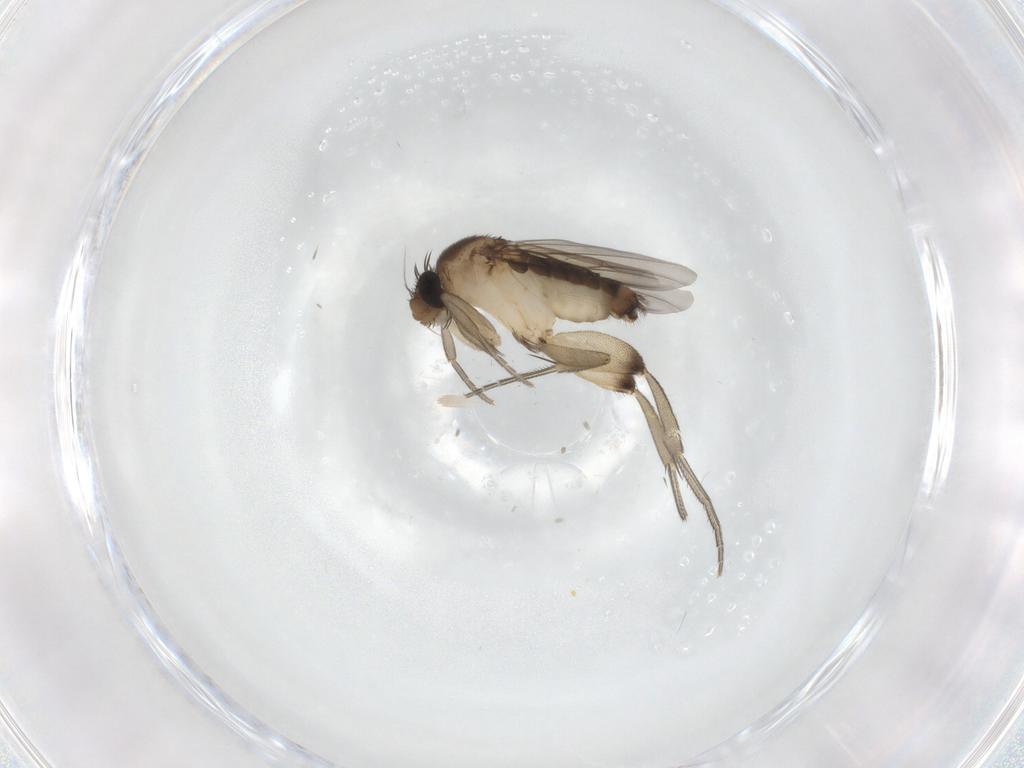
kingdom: Animalia
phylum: Arthropoda
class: Insecta
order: Diptera
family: Phoridae
